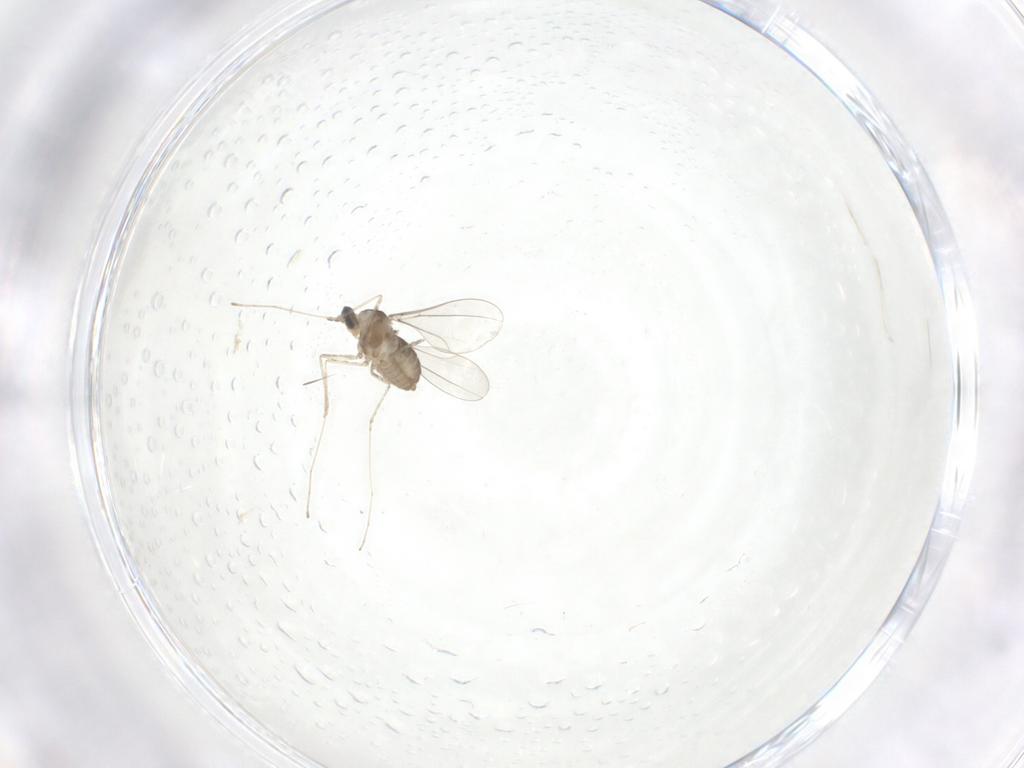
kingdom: Animalia
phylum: Arthropoda
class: Insecta
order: Diptera
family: Cecidomyiidae
